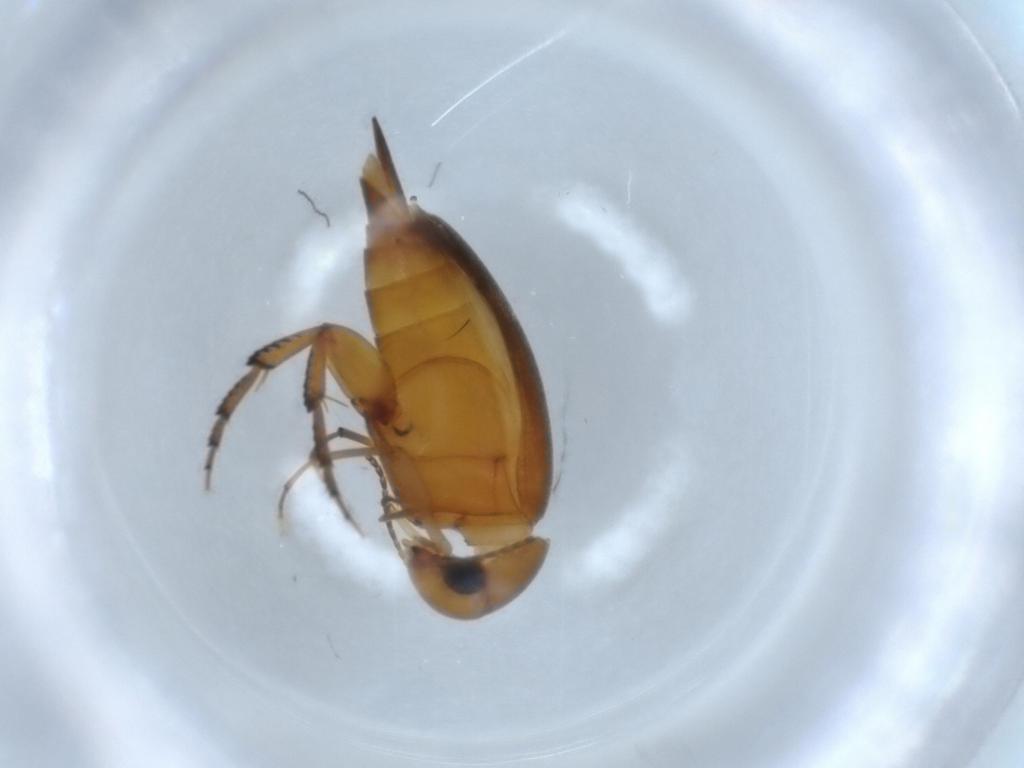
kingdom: Animalia
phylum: Arthropoda
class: Insecta
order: Coleoptera
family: Mordellidae
